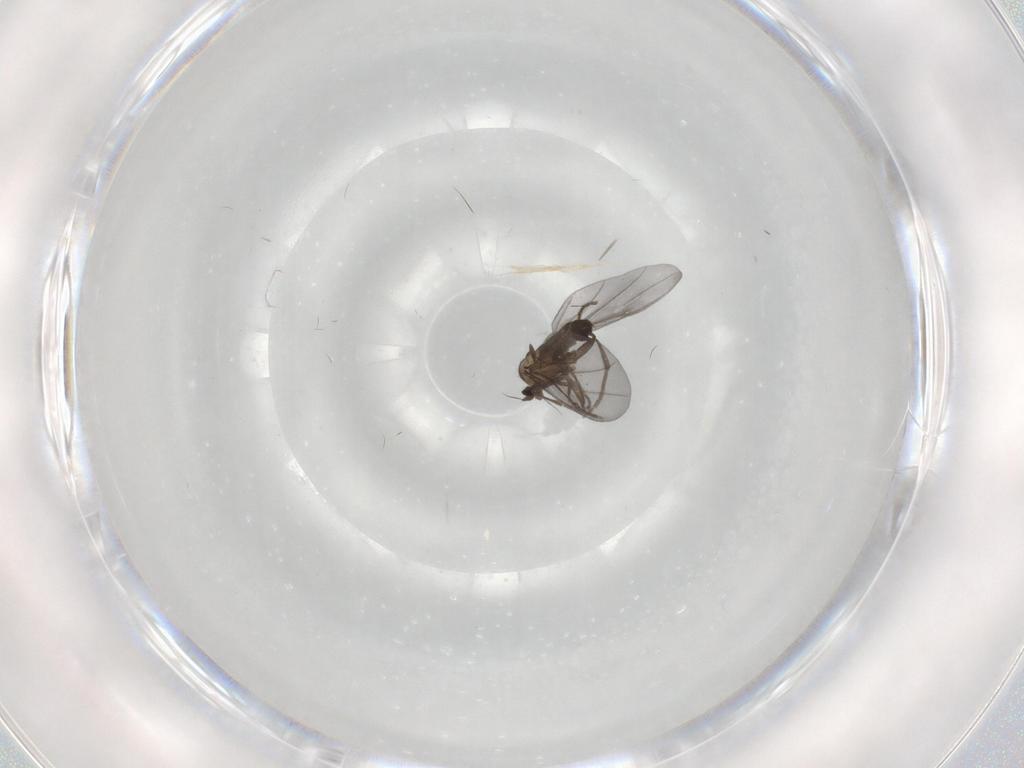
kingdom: Animalia
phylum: Arthropoda
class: Insecta
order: Diptera
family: Phoridae
